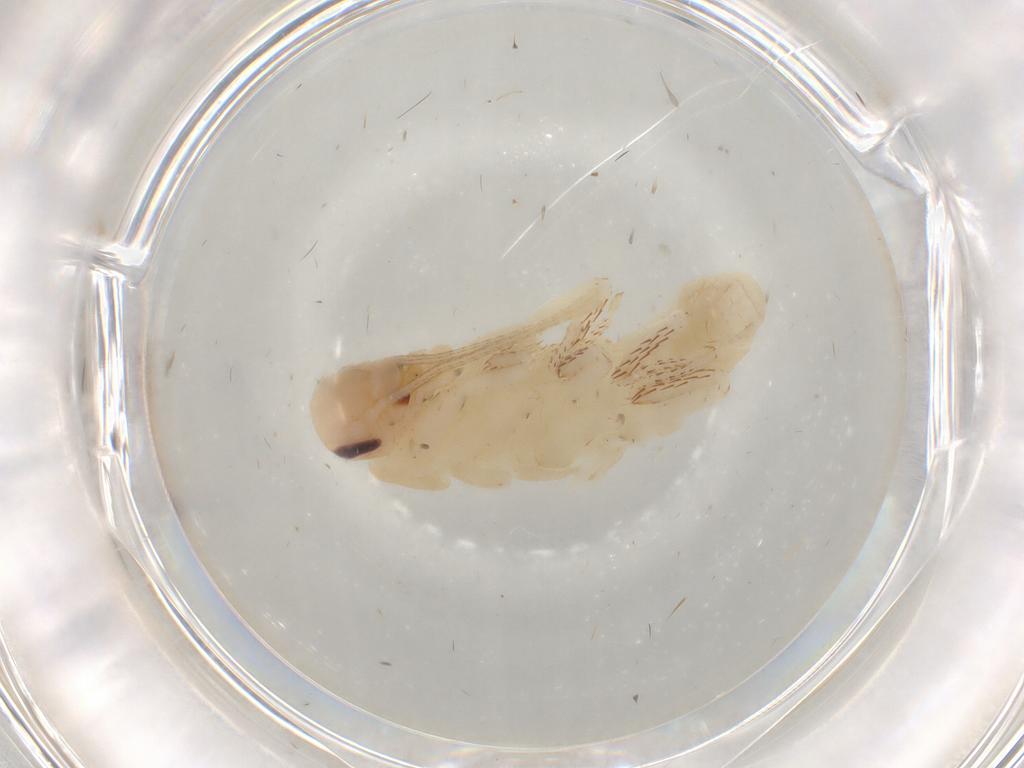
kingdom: Animalia
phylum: Arthropoda
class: Insecta
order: Blattodea
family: Blaberidae
